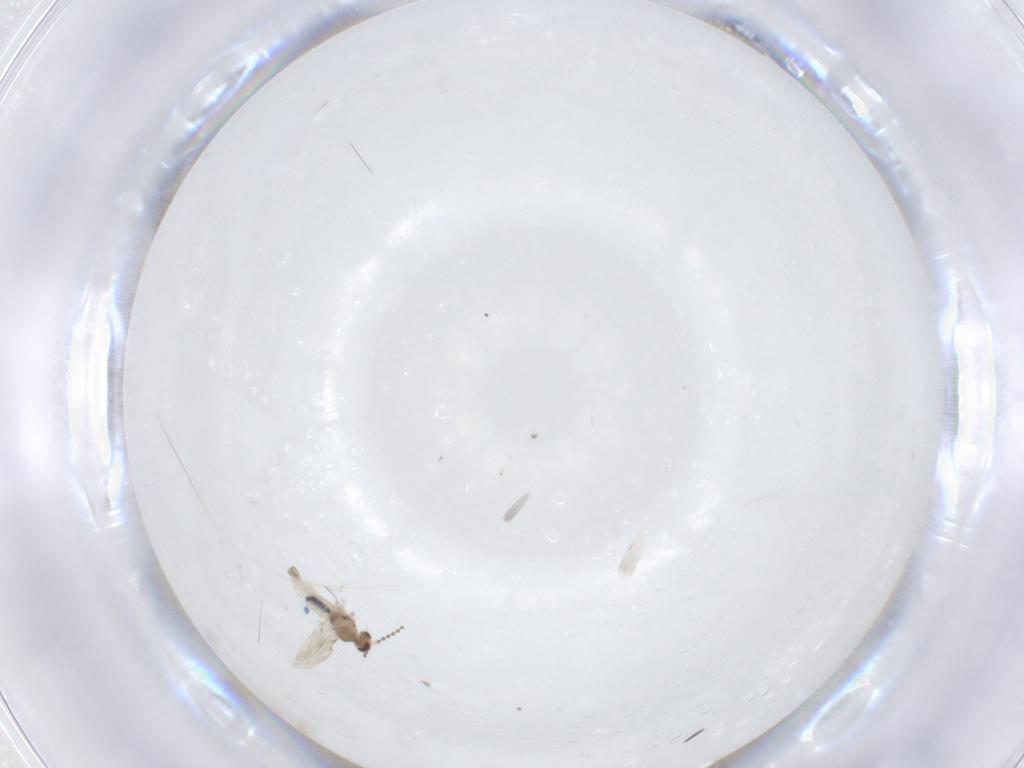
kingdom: Animalia
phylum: Arthropoda
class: Insecta
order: Diptera
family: Cecidomyiidae
